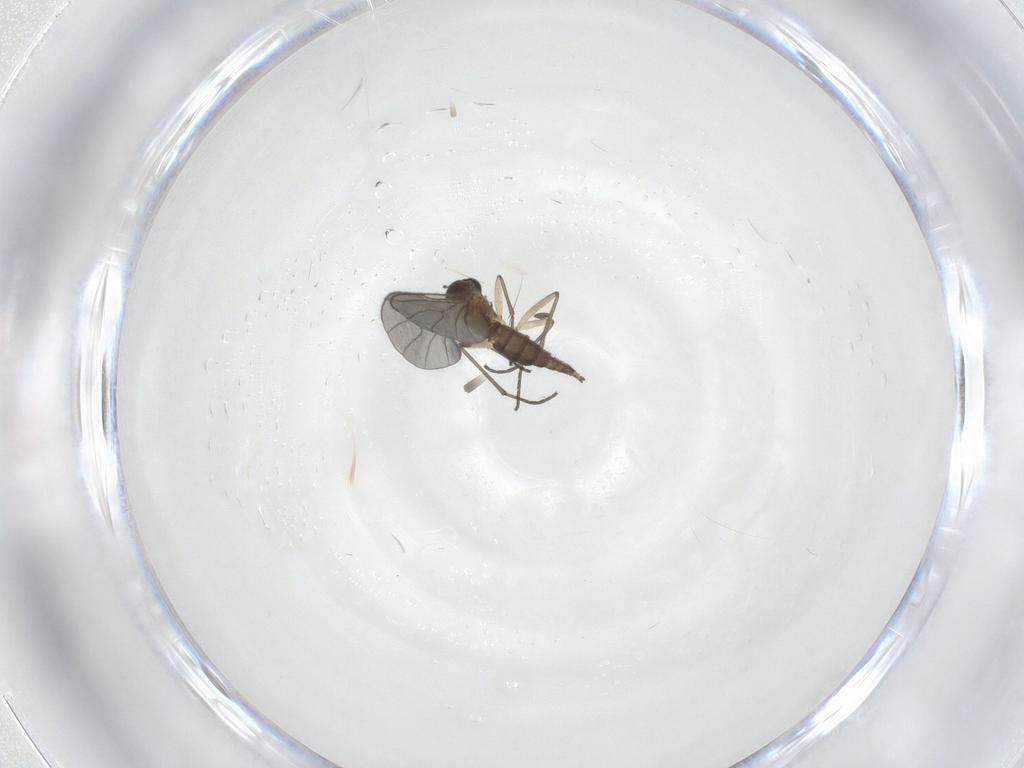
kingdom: Animalia
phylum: Arthropoda
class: Insecta
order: Diptera
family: Sciaridae
